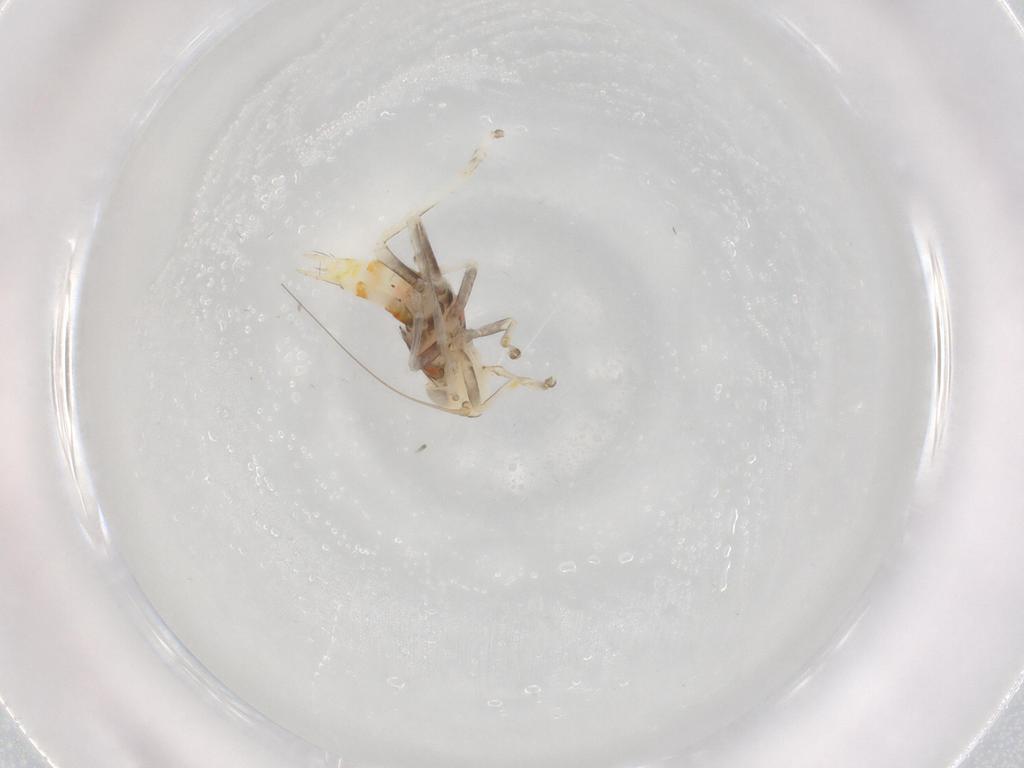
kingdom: Animalia
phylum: Arthropoda
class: Insecta
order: Hemiptera
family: Cicadellidae
